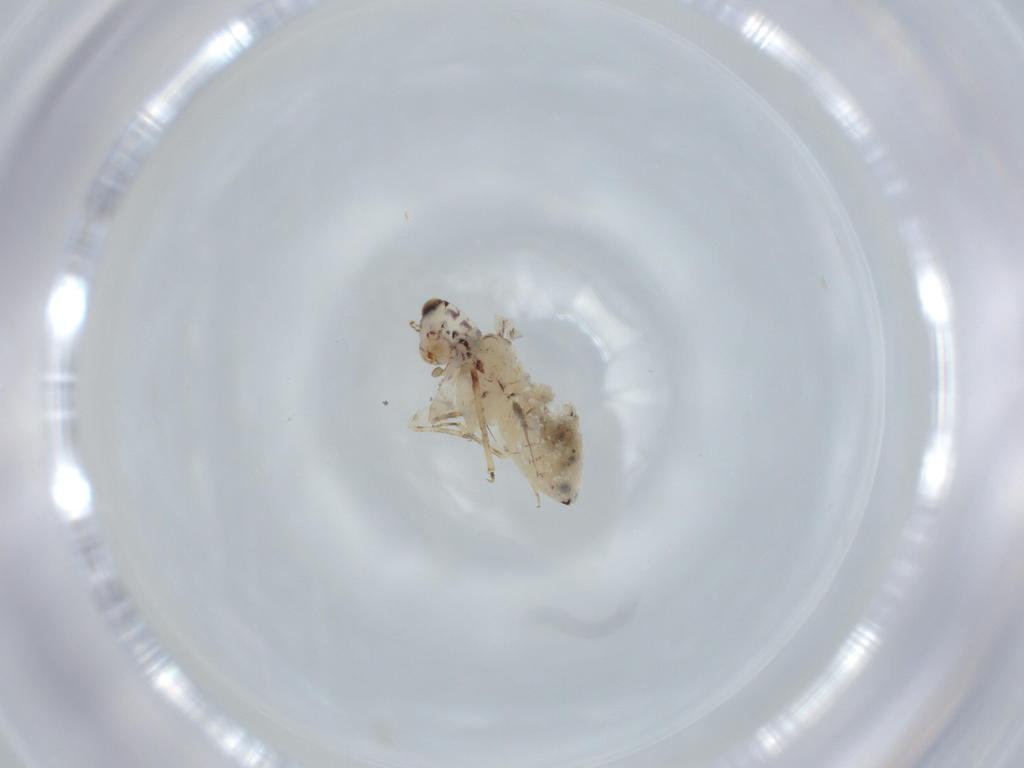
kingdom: Animalia
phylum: Arthropoda
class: Insecta
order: Psocodea
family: Lepidopsocidae
